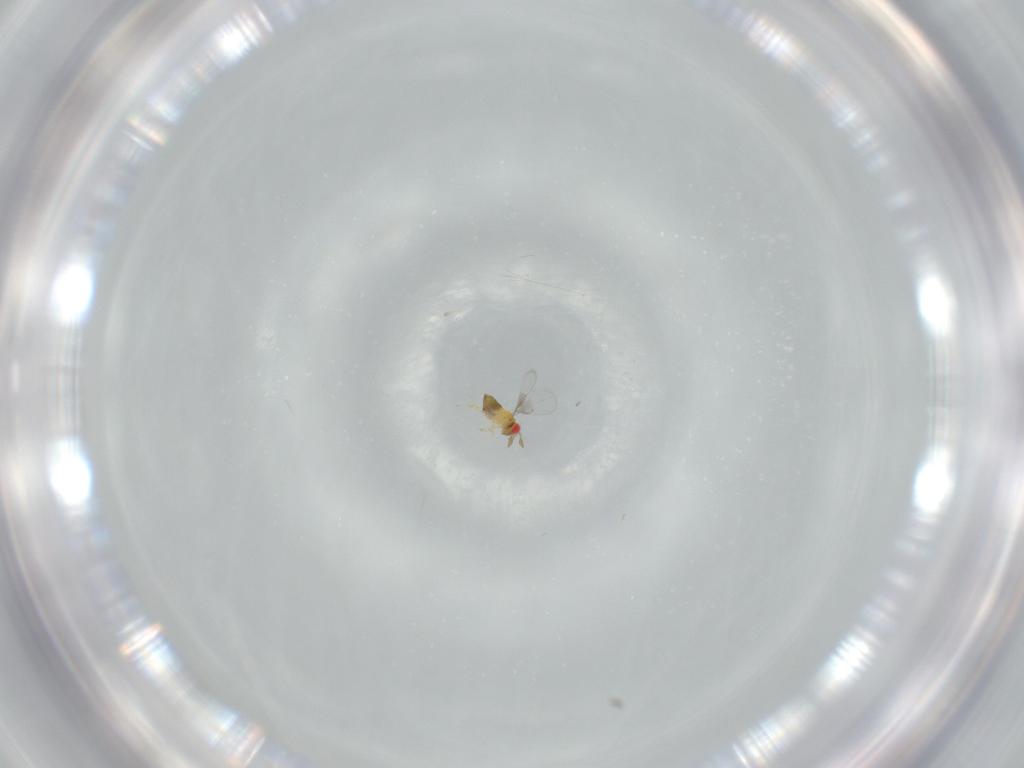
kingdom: Animalia
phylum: Arthropoda
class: Insecta
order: Hymenoptera
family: Trichogrammatidae
